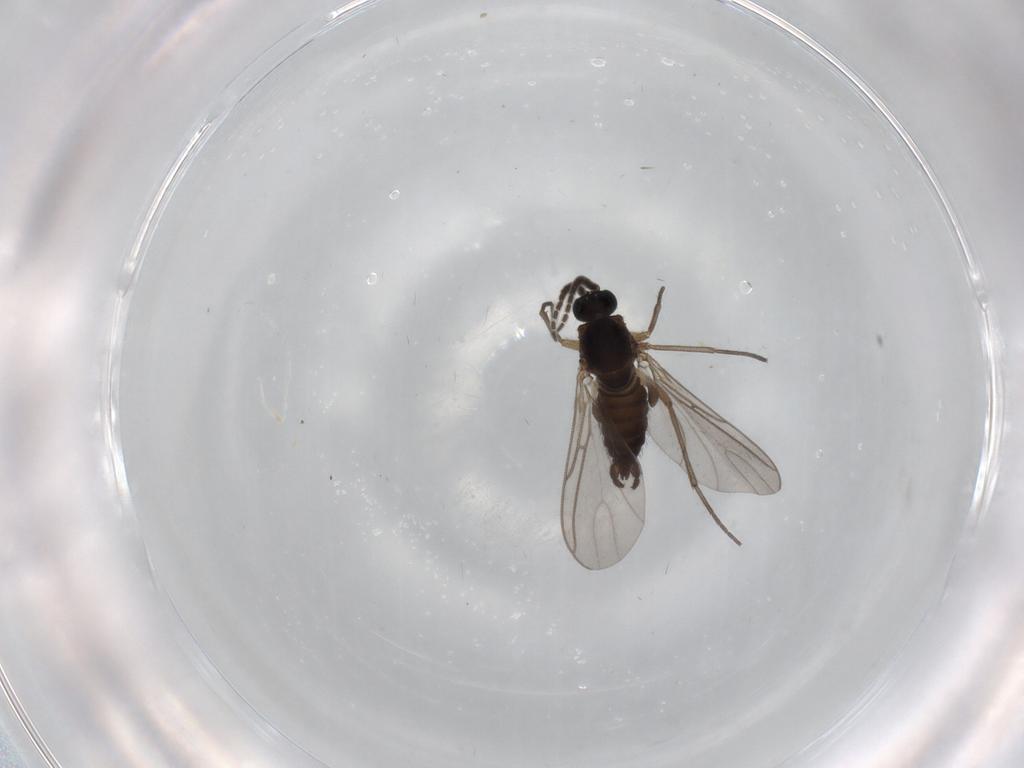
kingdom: Animalia
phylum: Arthropoda
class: Insecta
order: Diptera
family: Sciaridae
